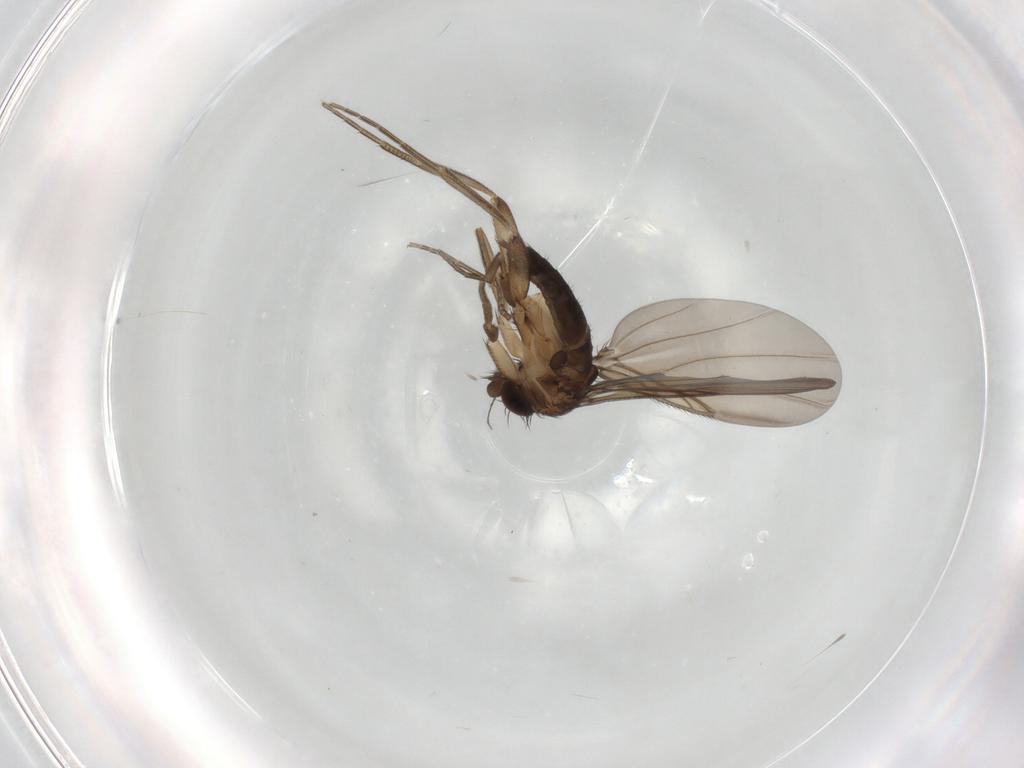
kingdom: Animalia
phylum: Arthropoda
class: Insecta
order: Diptera
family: Phoridae
